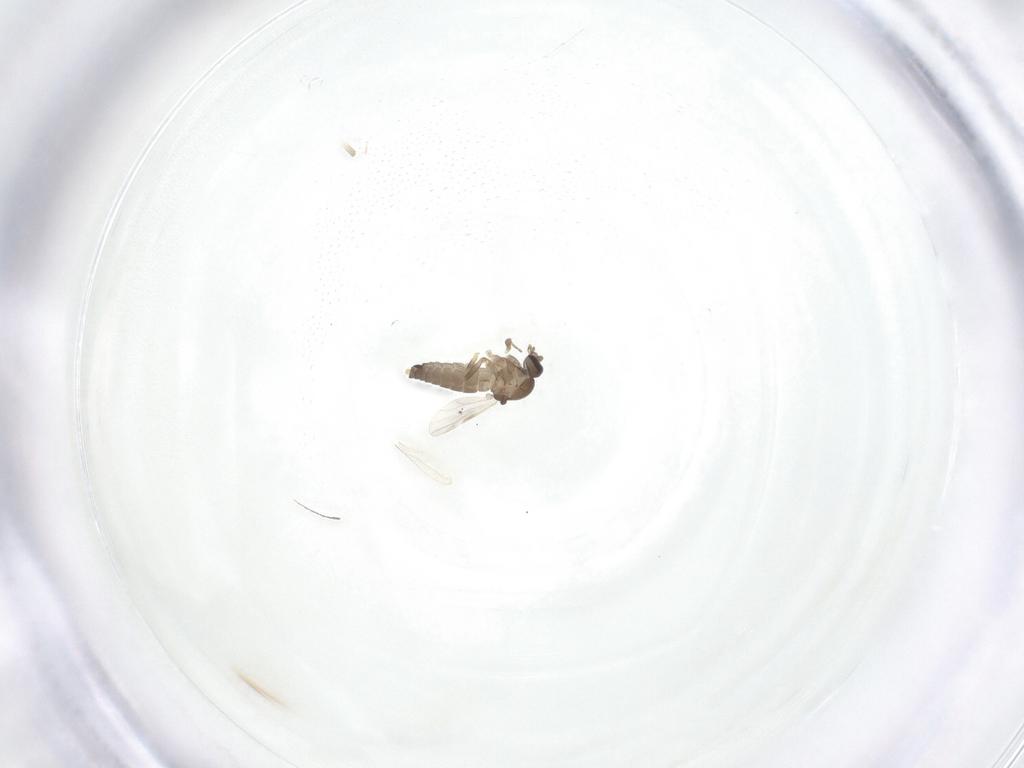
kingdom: Animalia
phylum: Arthropoda
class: Insecta
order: Diptera
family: Ceratopogonidae
